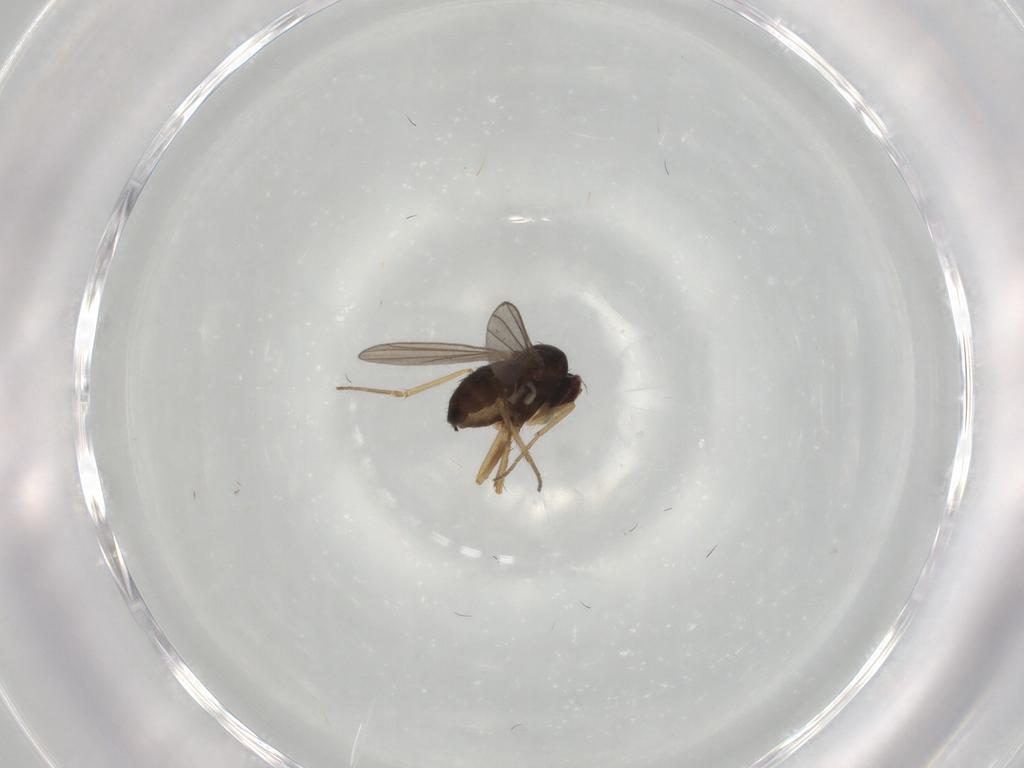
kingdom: Animalia
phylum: Arthropoda
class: Insecta
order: Diptera
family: Dolichopodidae
